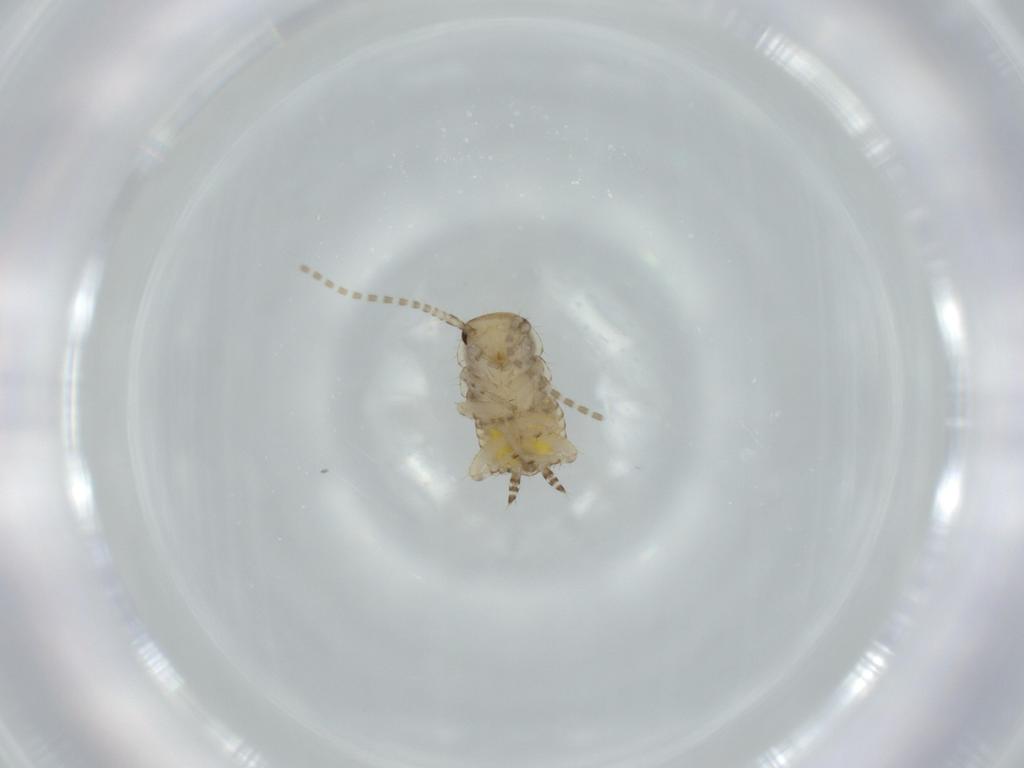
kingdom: Animalia
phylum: Arthropoda
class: Insecta
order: Blattodea
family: Ectobiidae
